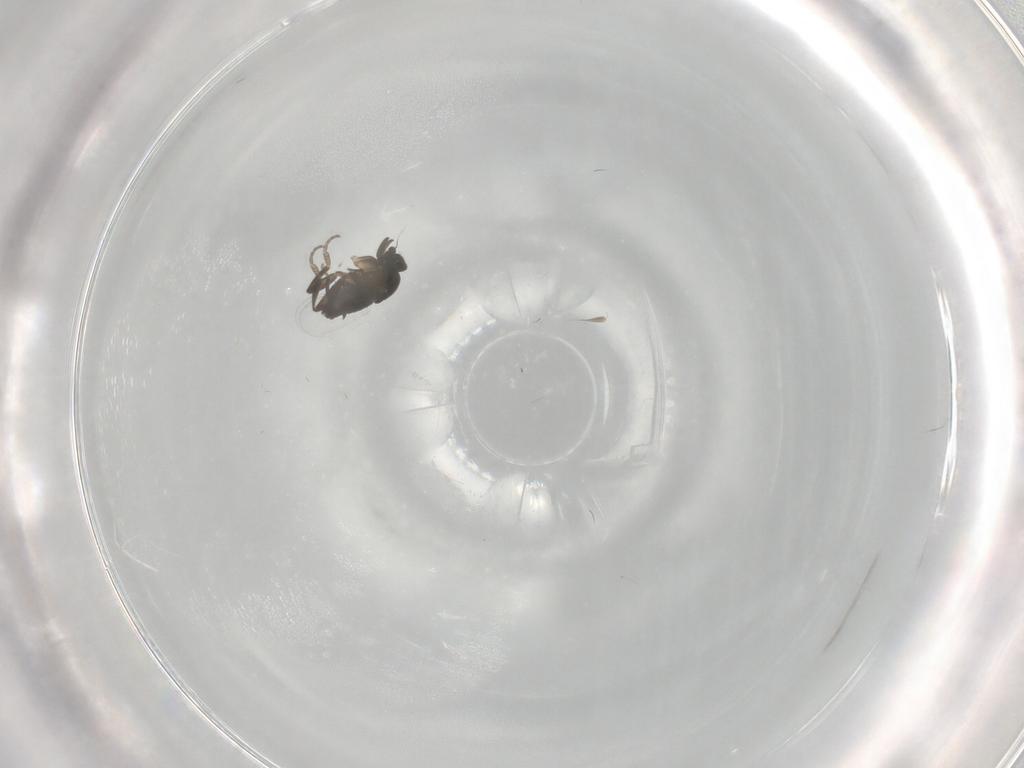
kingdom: Animalia
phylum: Arthropoda
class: Insecta
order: Diptera
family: Phoridae
